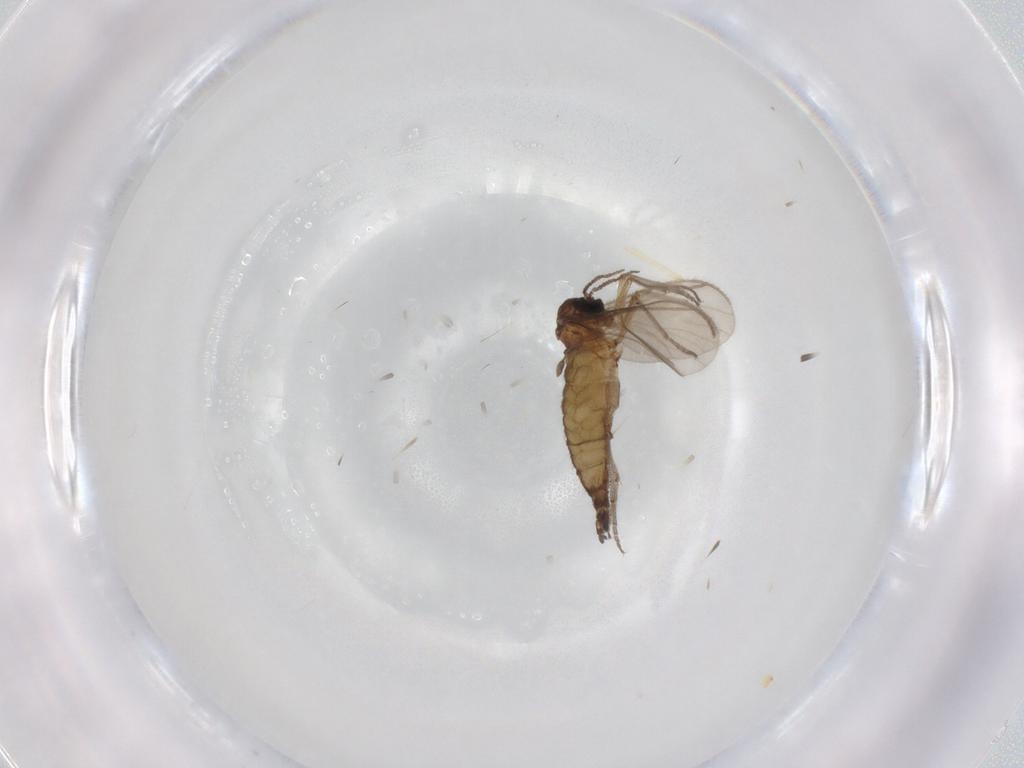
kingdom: Animalia
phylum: Arthropoda
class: Insecta
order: Diptera
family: Sciaridae
